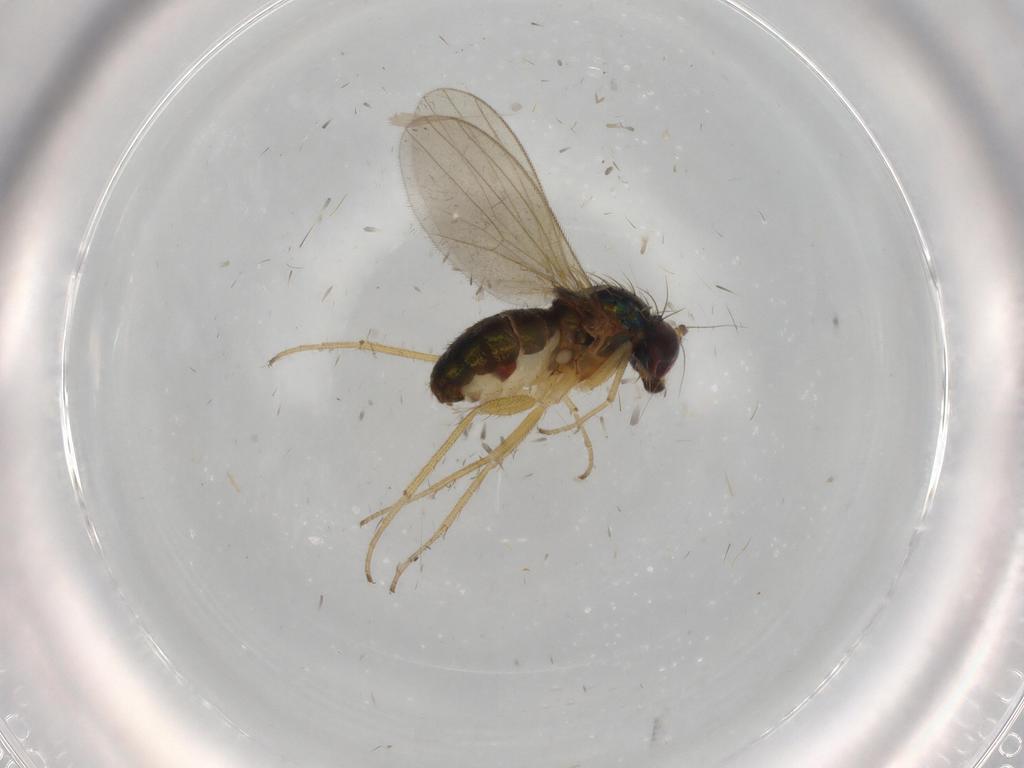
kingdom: Animalia
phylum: Arthropoda
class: Insecta
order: Diptera
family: Dolichopodidae
